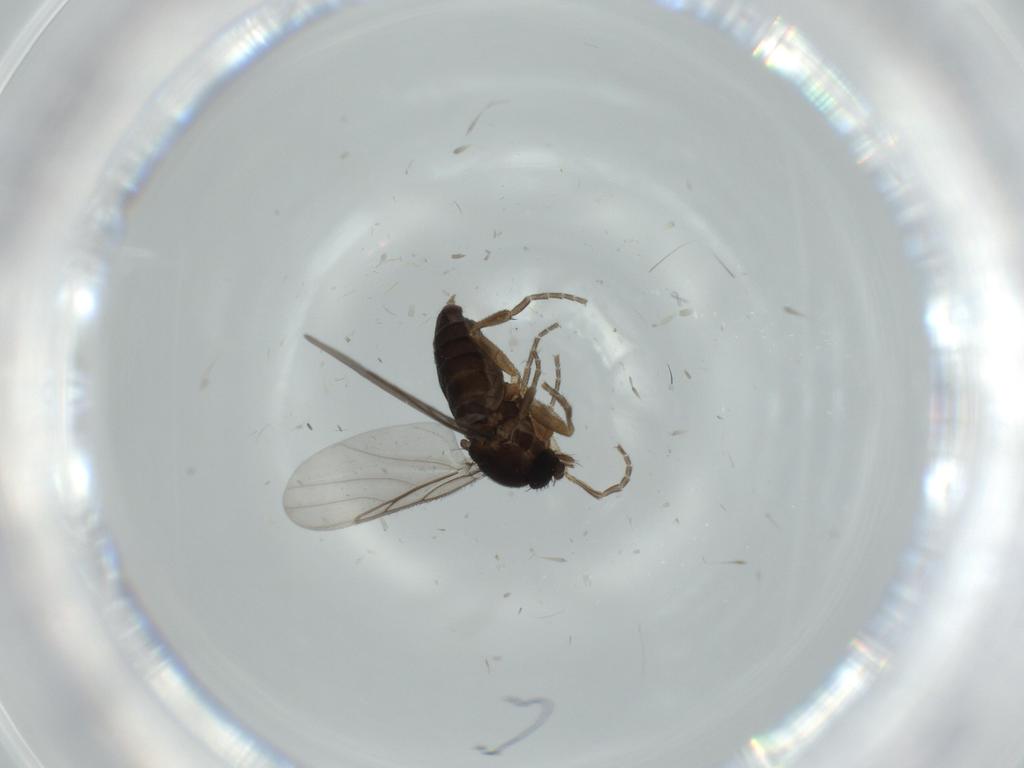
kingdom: Animalia
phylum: Arthropoda
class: Insecta
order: Diptera
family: Phoridae
